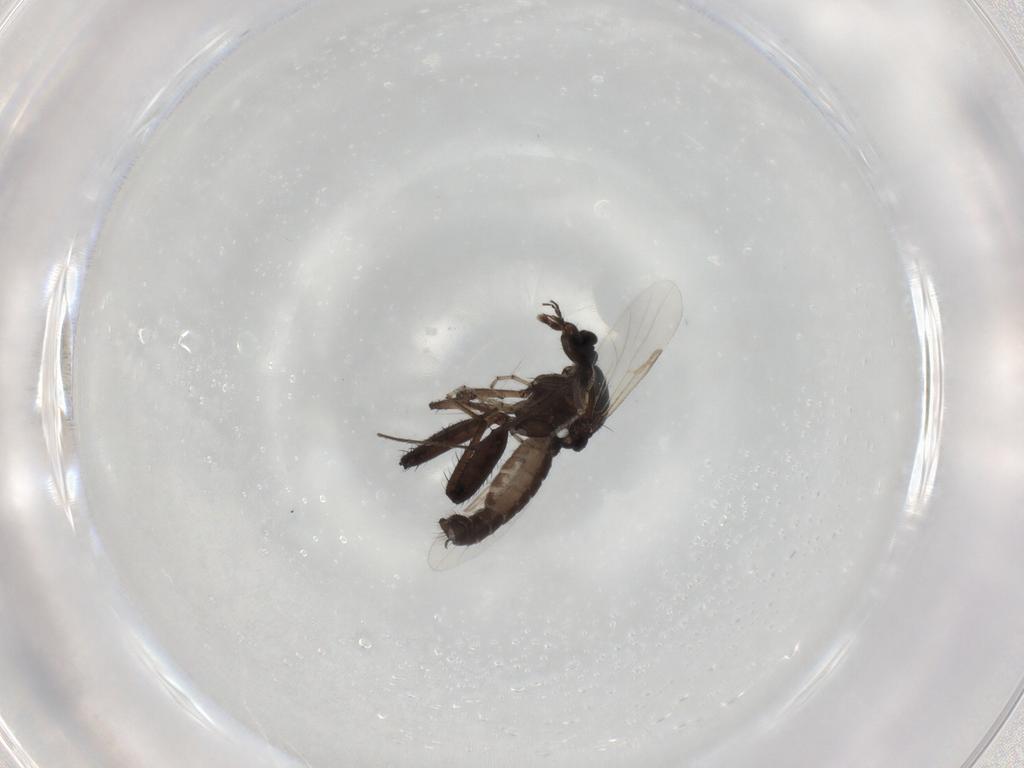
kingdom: Animalia
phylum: Arthropoda
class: Insecta
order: Diptera
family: Ceratopogonidae
